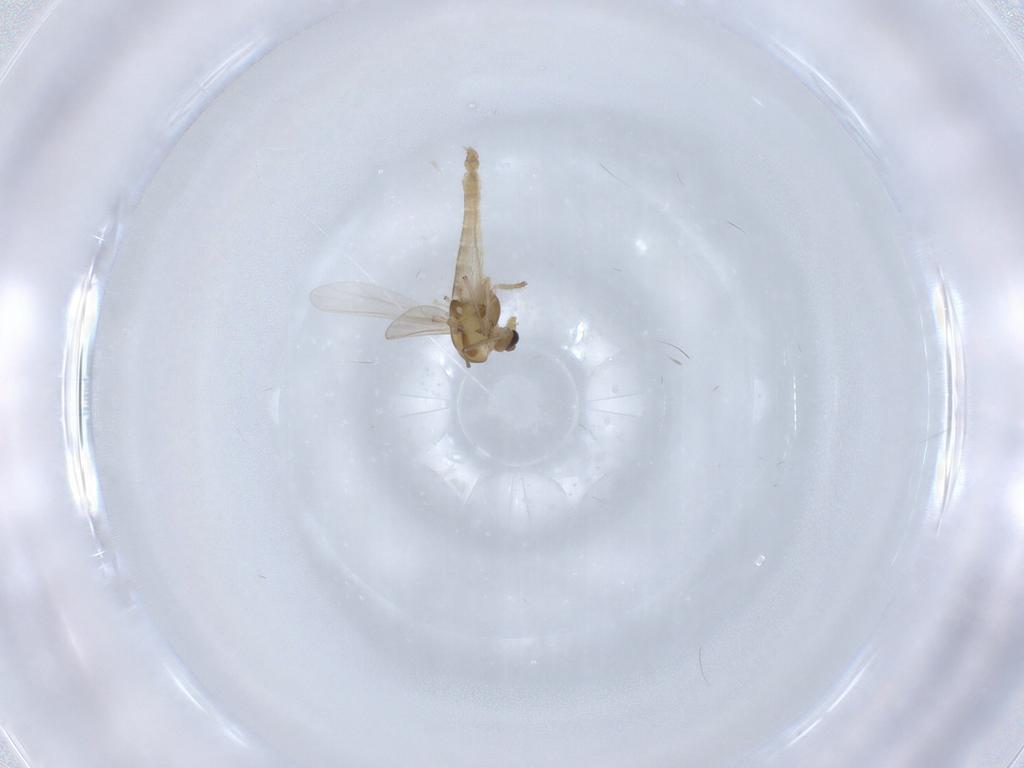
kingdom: Animalia
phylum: Arthropoda
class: Insecta
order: Diptera
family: Chironomidae
